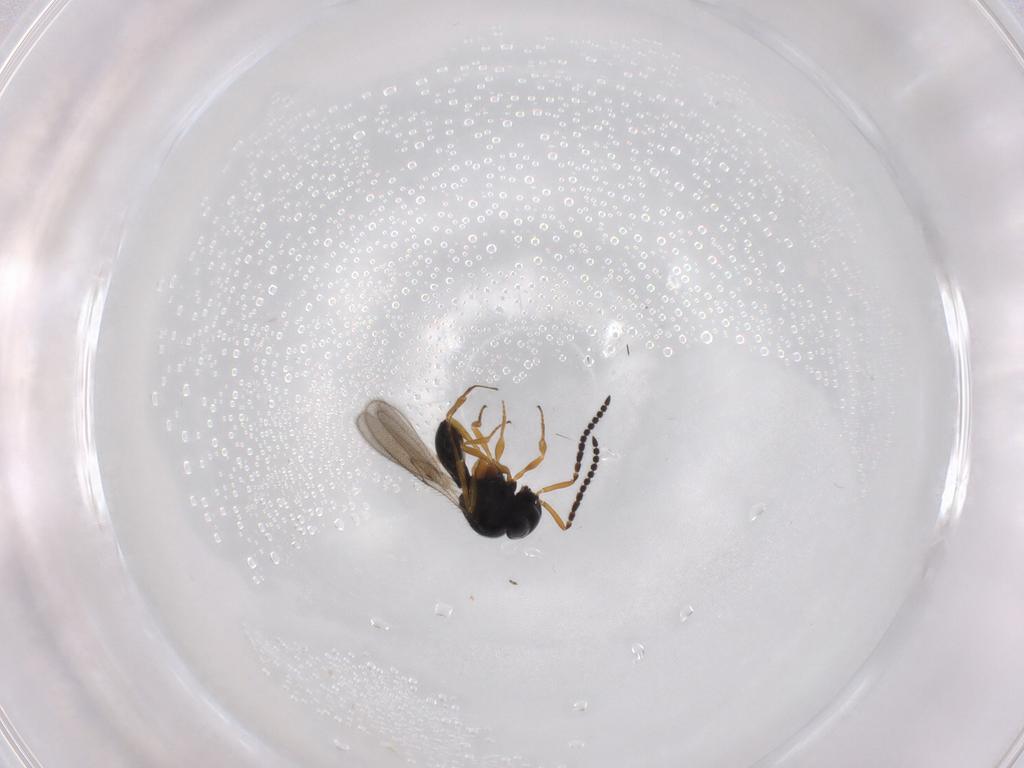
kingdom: Animalia
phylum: Arthropoda
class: Insecta
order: Hymenoptera
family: Scelionidae
